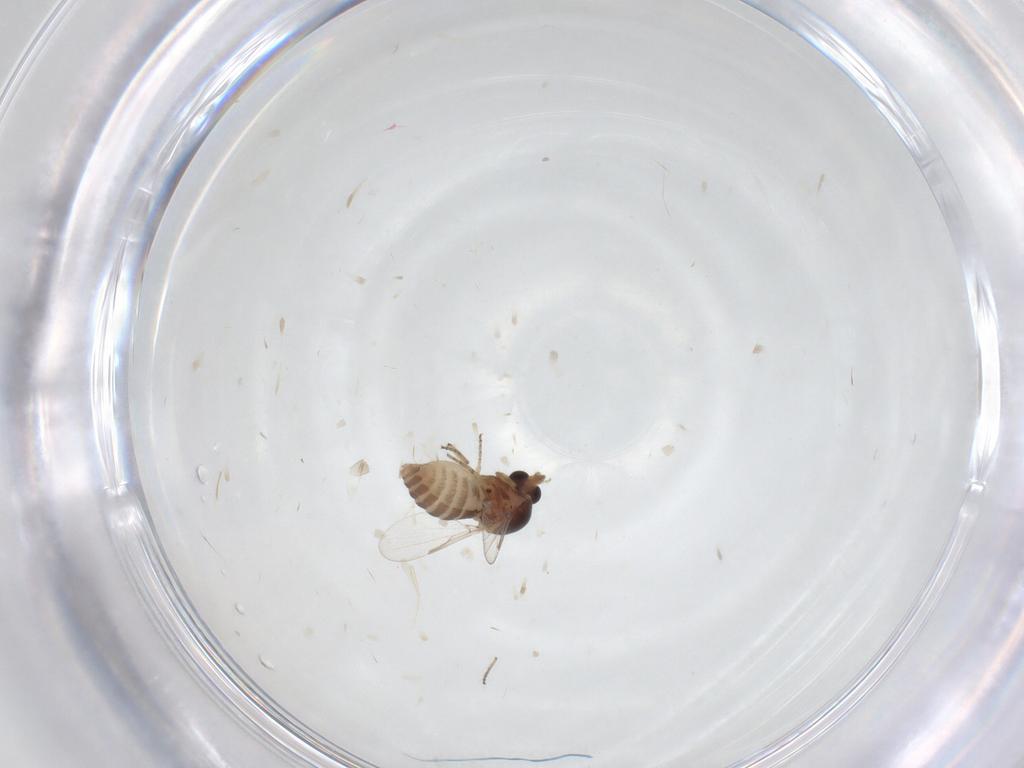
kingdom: Animalia
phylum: Arthropoda
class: Insecta
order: Diptera
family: Ceratopogonidae
